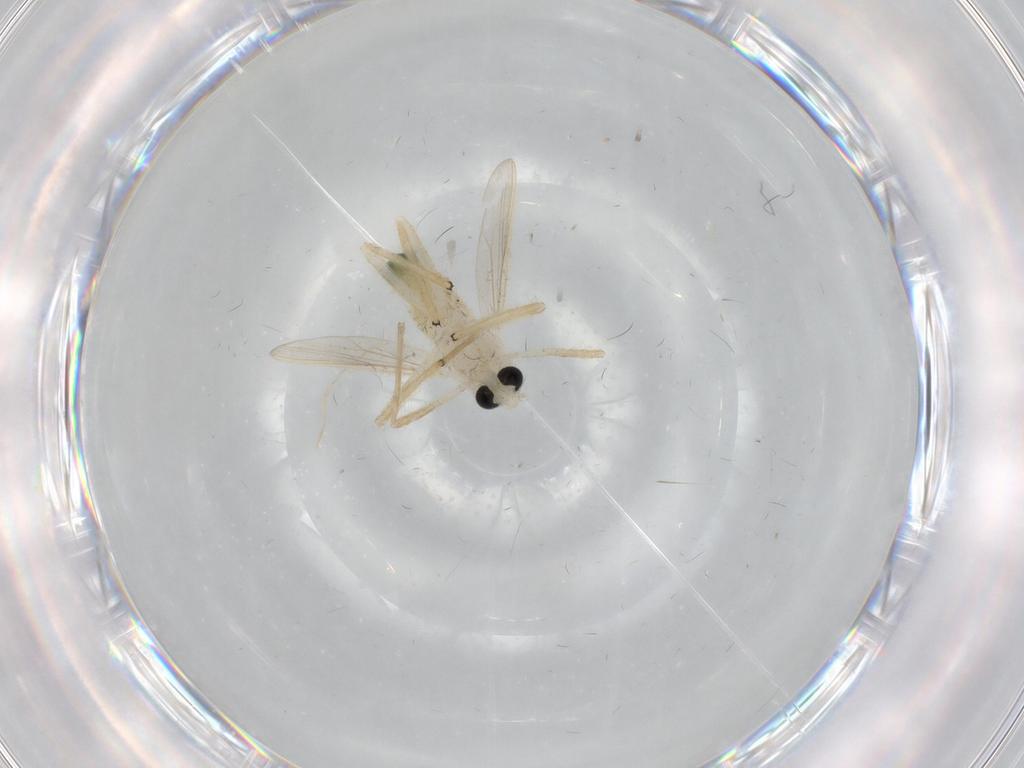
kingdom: Animalia
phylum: Arthropoda
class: Insecta
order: Diptera
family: Chironomidae
